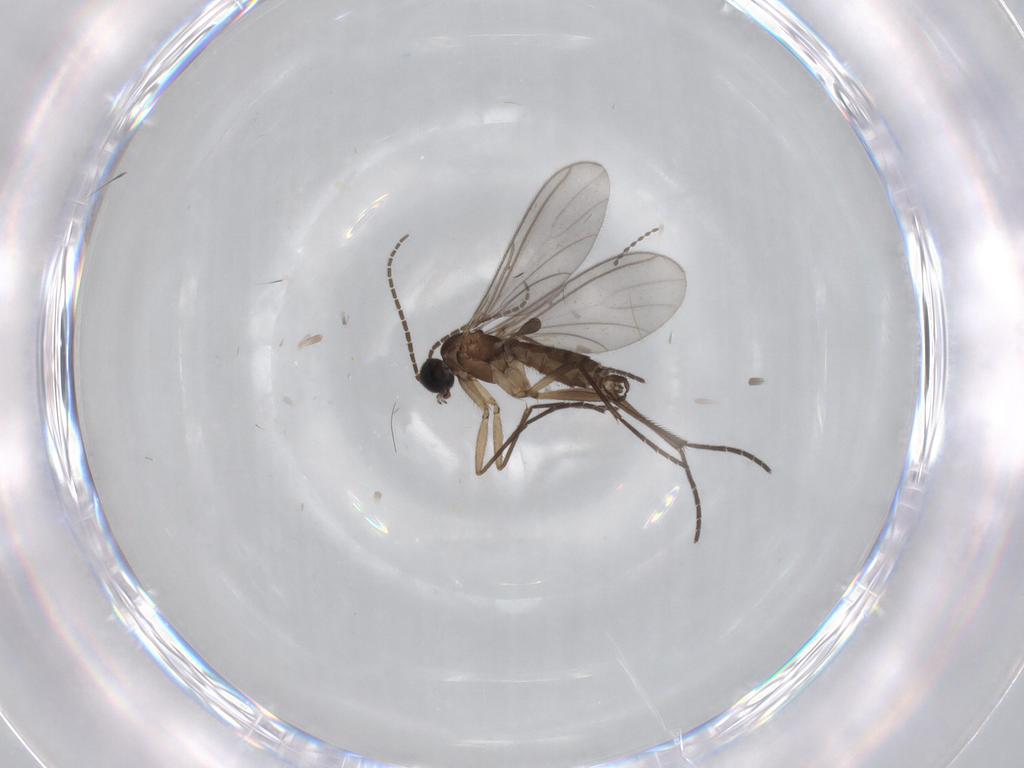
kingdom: Animalia
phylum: Arthropoda
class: Insecta
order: Diptera
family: Sciaridae
